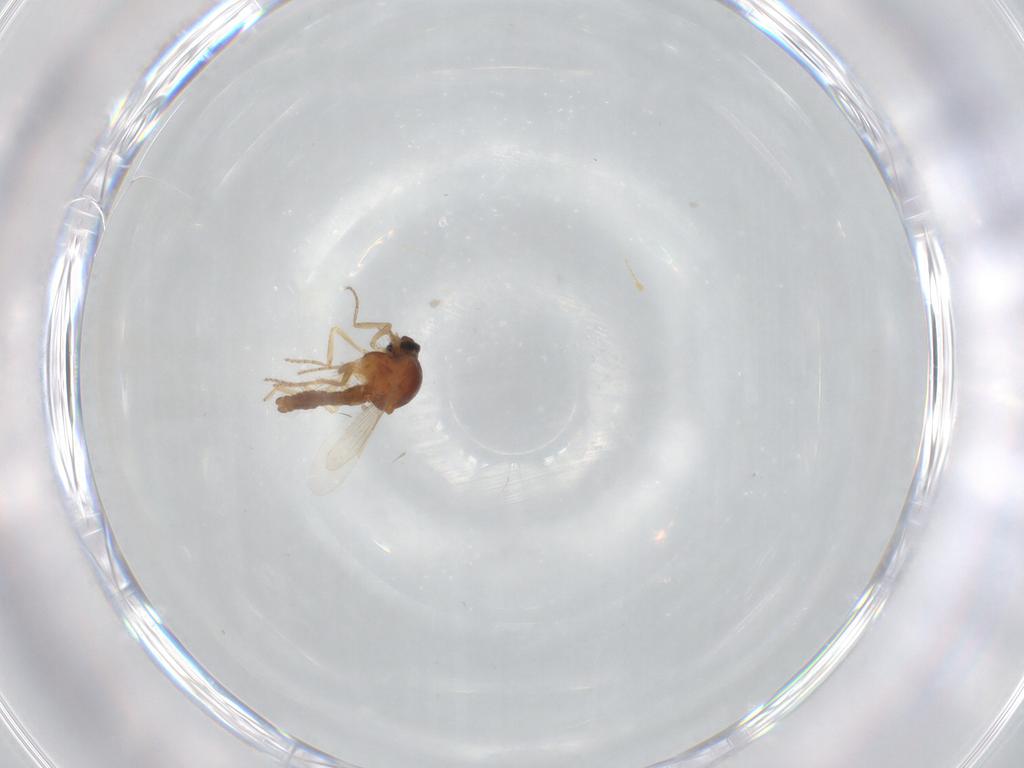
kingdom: Animalia
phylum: Arthropoda
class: Insecta
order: Diptera
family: Ceratopogonidae
